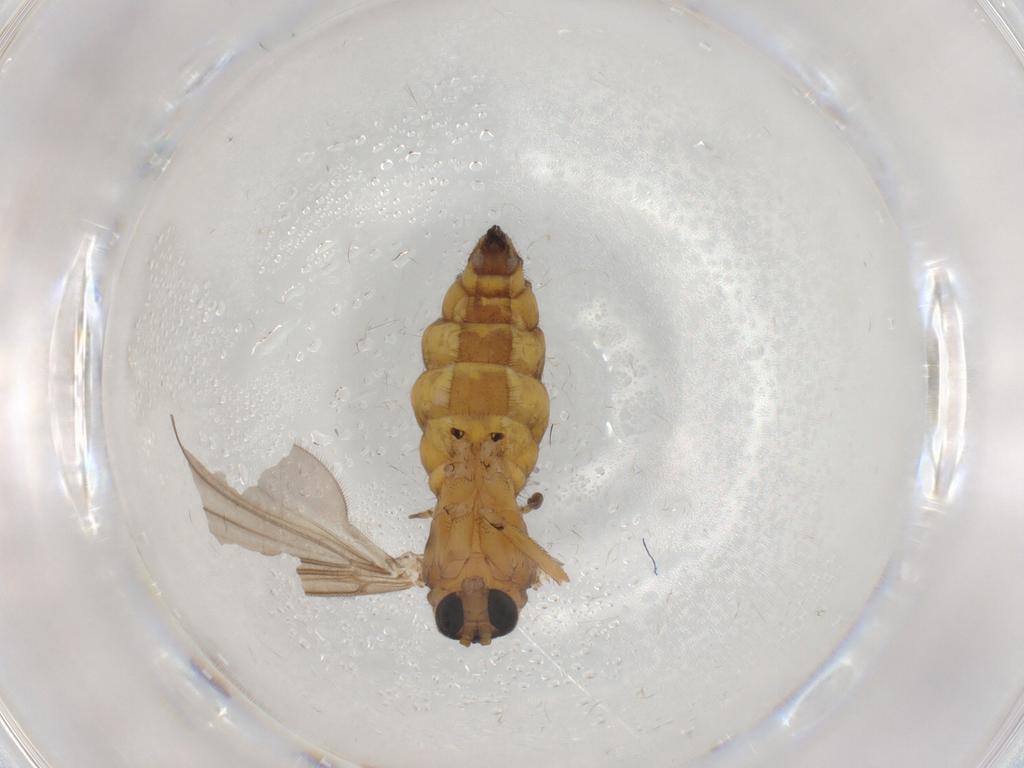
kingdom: Animalia
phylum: Arthropoda
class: Insecta
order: Diptera
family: Sciaridae
